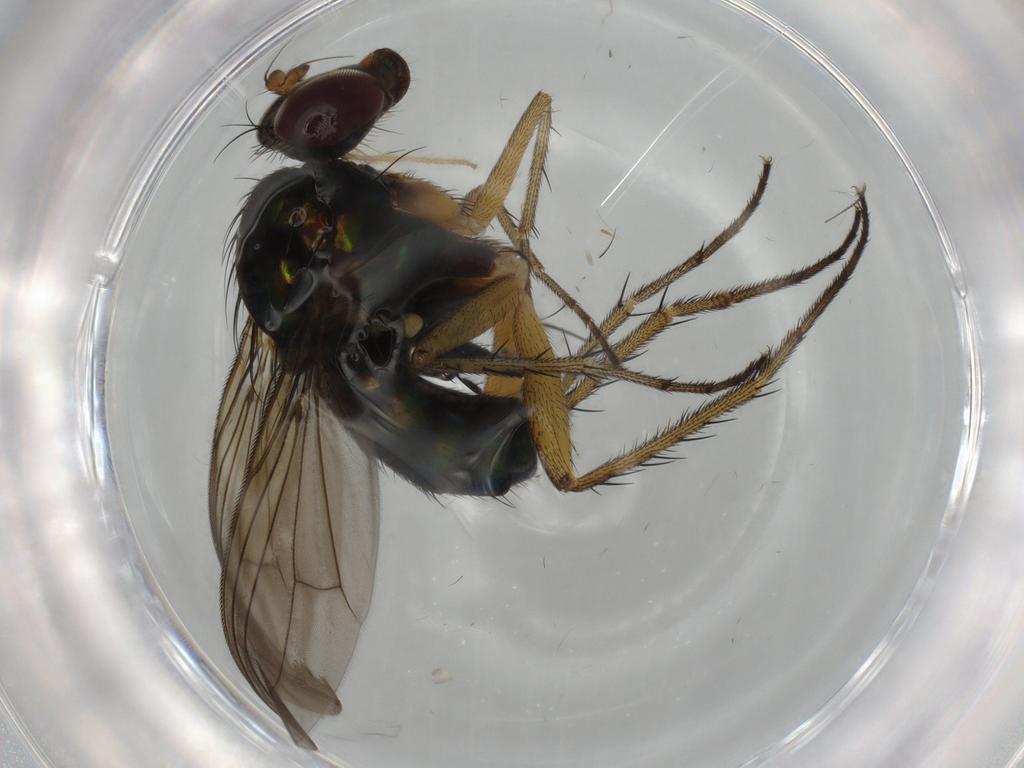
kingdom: Animalia
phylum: Arthropoda
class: Insecta
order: Diptera
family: Dolichopodidae
